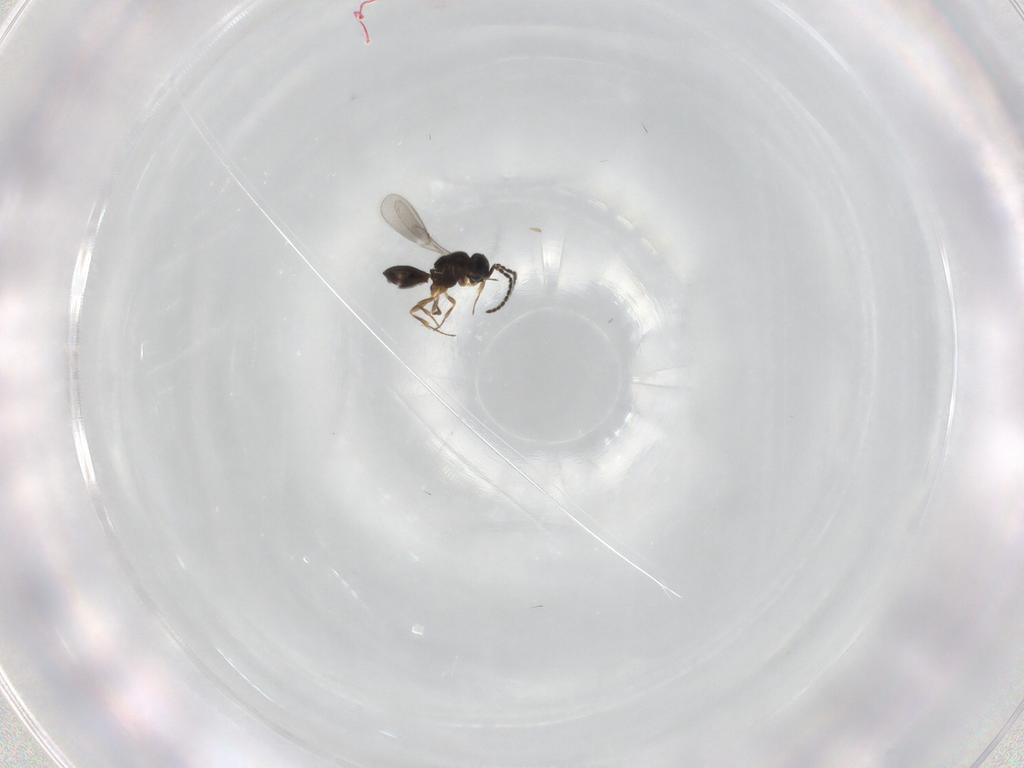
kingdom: Animalia
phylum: Arthropoda
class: Insecta
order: Hymenoptera
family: Scelionidae
